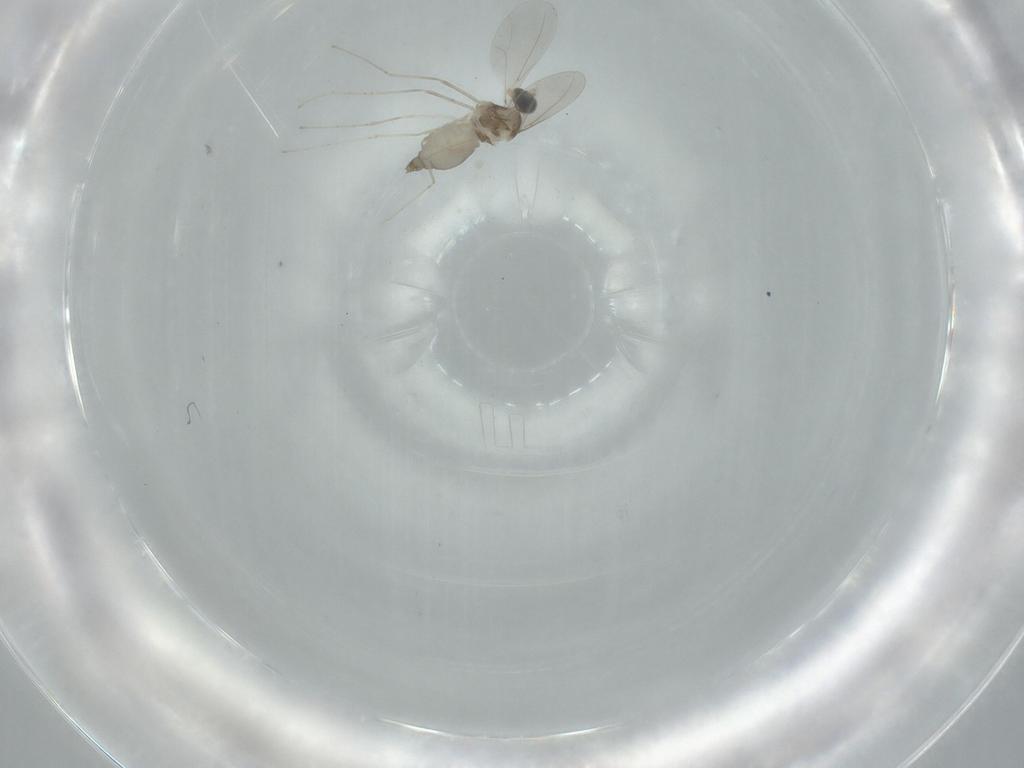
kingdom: Animalia
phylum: Arthropoda
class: Insecta
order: Diptera
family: Cecidomyiidae
